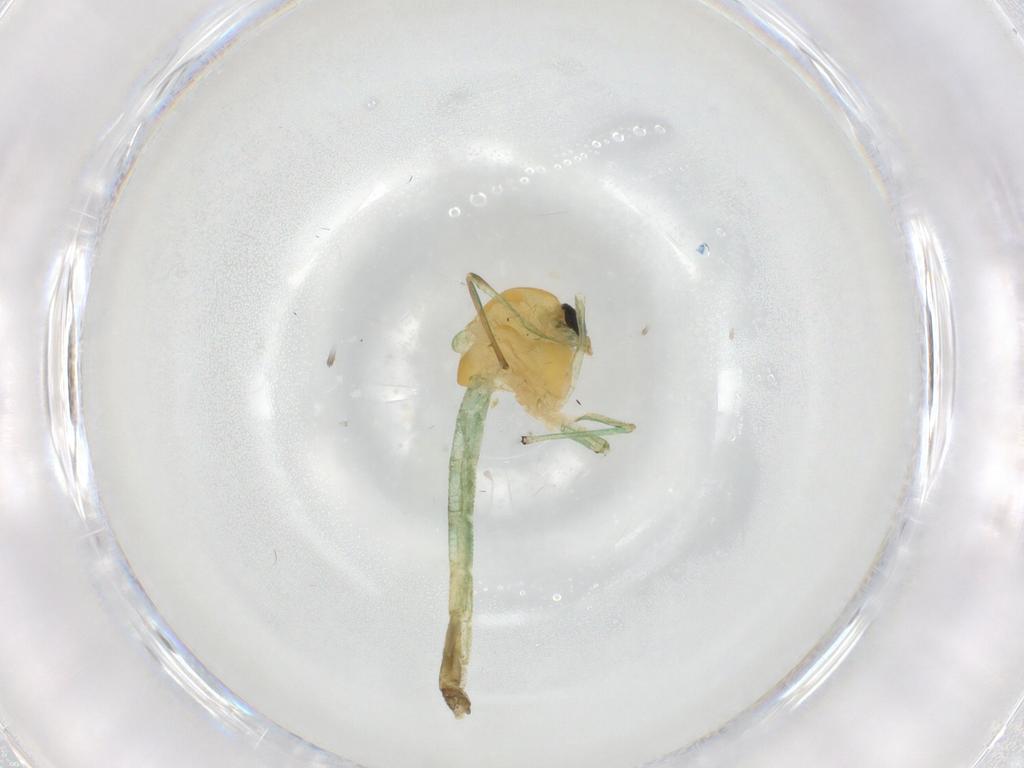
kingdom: Animalia
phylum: Arthropoda
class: Insecta
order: Diptera
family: Chironomidae
